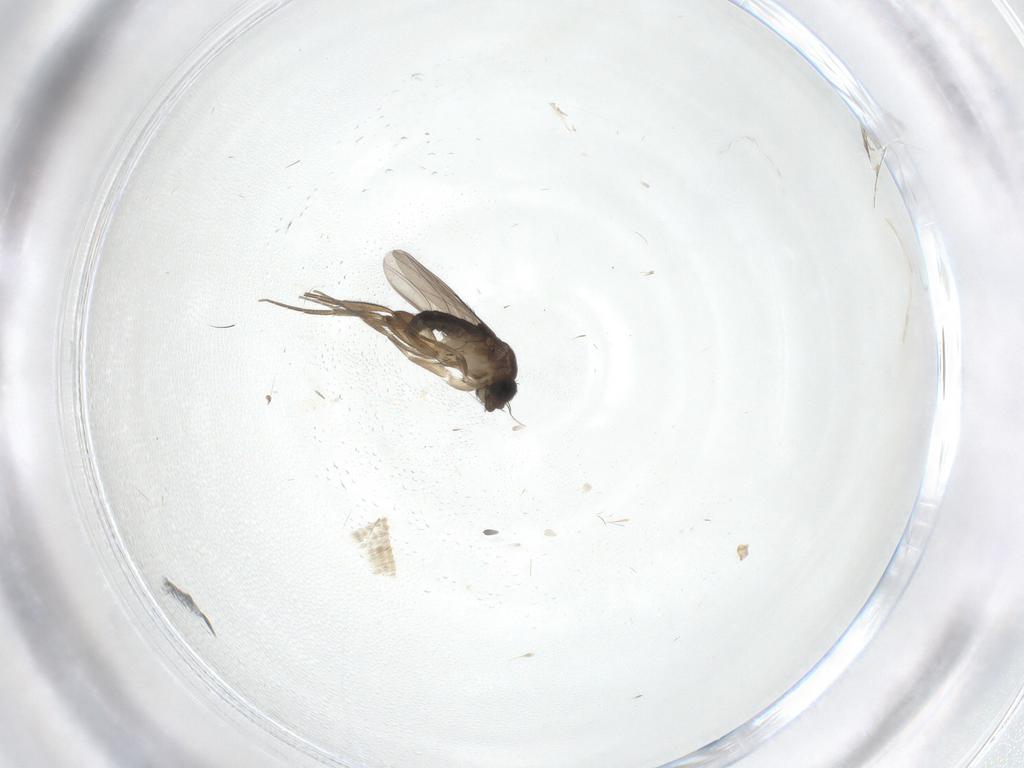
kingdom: Animalia
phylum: Arthropoda
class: Insecta
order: Diptera
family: Phoridae
